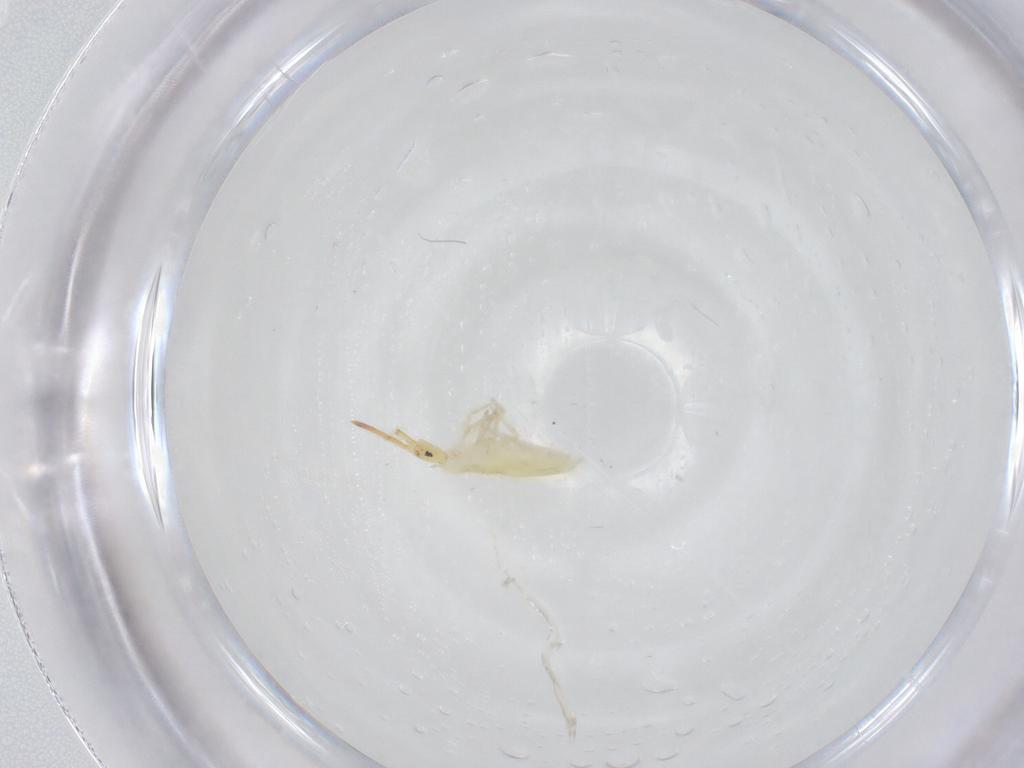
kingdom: Animalia
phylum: Arthropoda
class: Collembola
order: Entomobryomorpha
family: Entomobryidae
